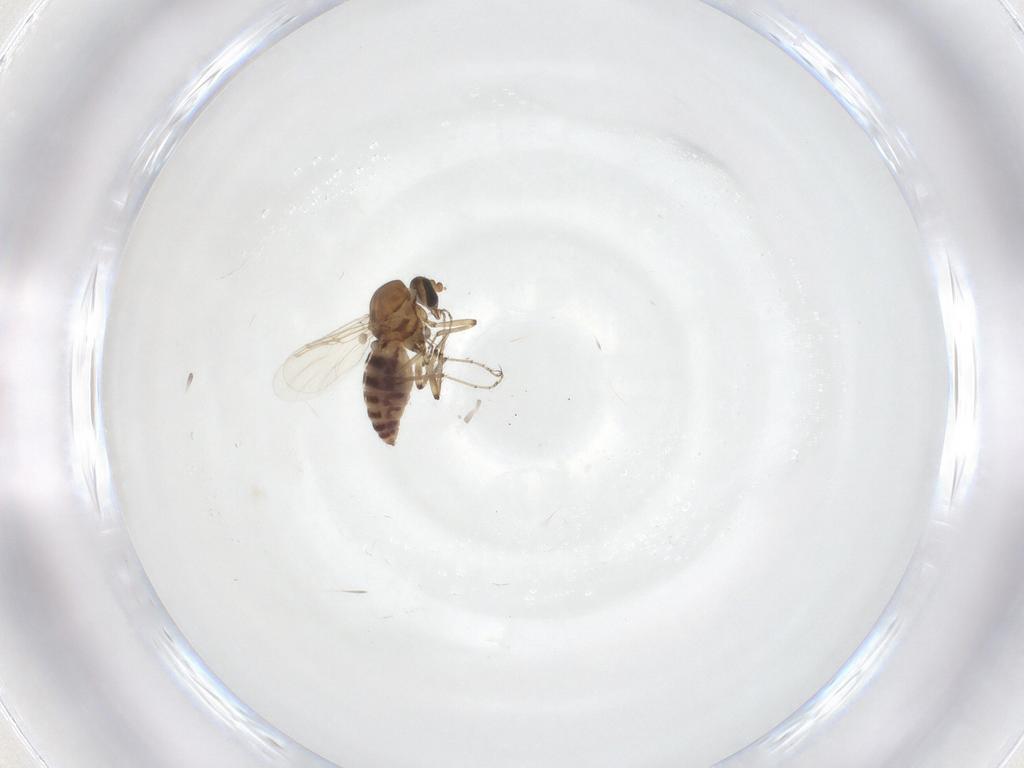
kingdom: Animalia
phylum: Arthropoda
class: Insecta
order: Diptera
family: Ceratopogonidae
